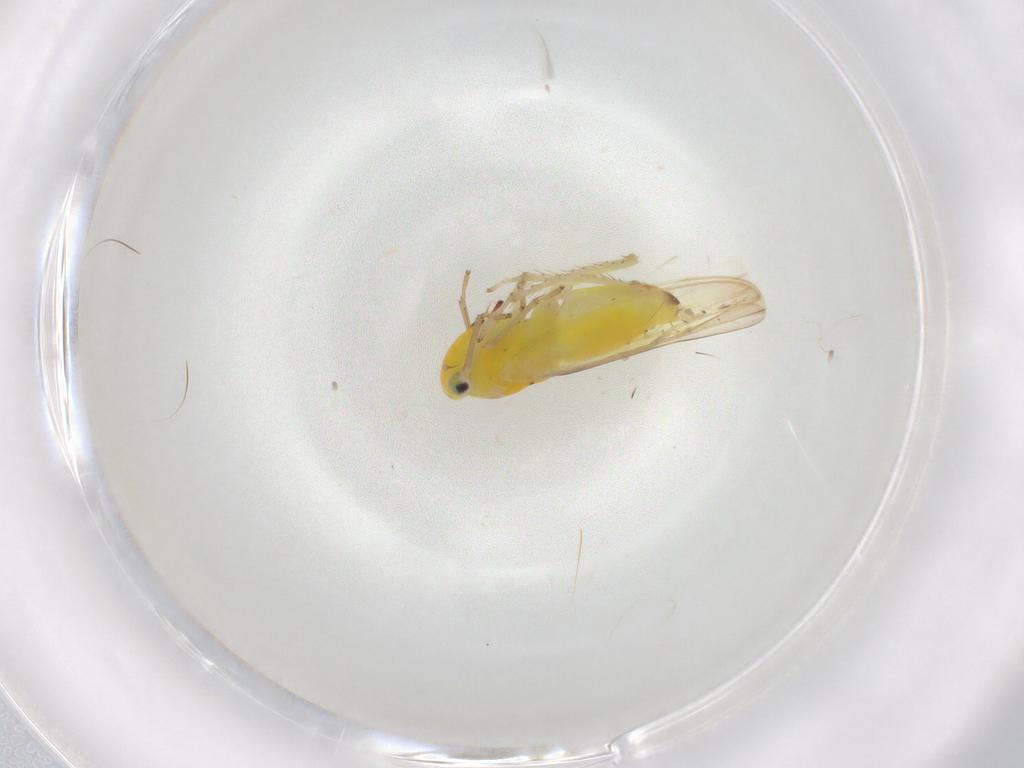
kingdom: Animalia
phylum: Arthropoda
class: Insecta
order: Hemiptera
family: Cicadellidae
